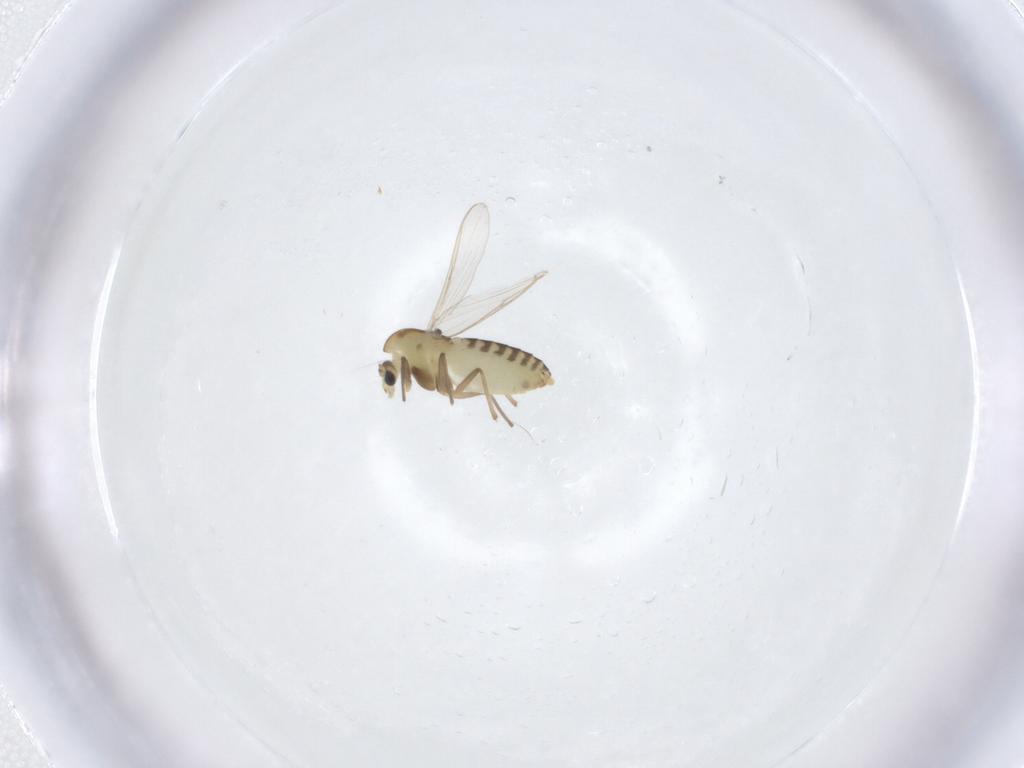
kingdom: Animalia
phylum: Arthropoda
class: Insecta
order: Diptera
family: Chironomidae
